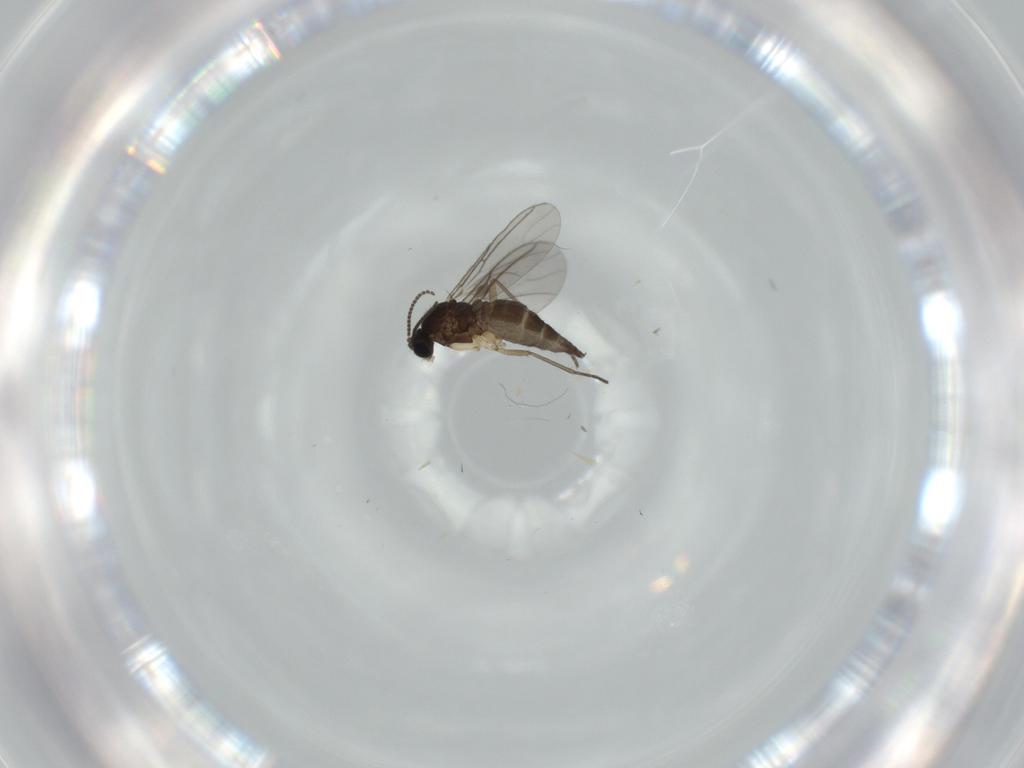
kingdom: Animalia
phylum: Arthropoda
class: Insecta
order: Diptera
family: Sciaridae
